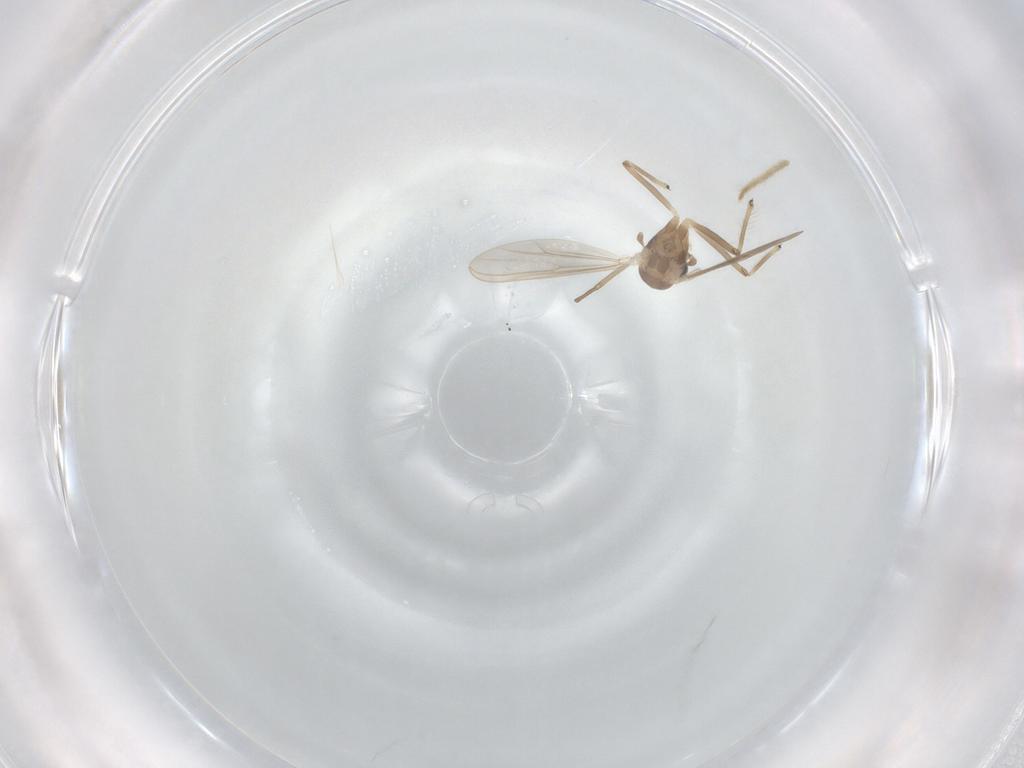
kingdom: Animalia
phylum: Arthropoda
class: Insecta
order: Diptera
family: Chironomidae
